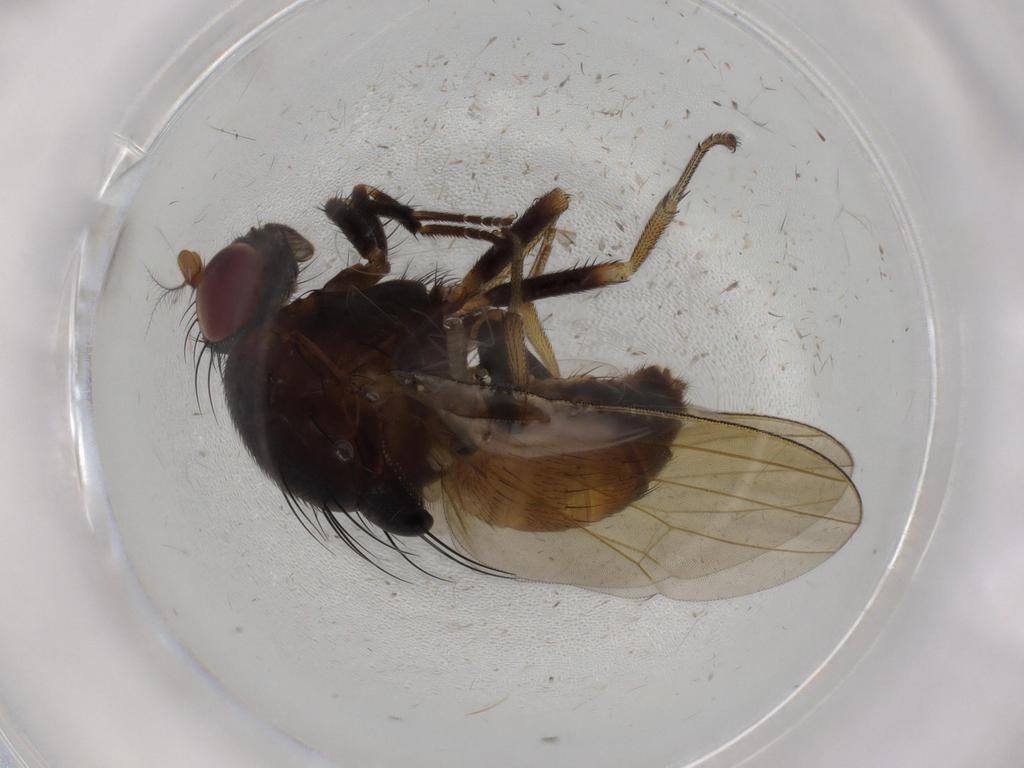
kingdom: Animalia
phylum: Arthropoda
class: Insecta
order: Diptera
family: Cecidomyiidae
